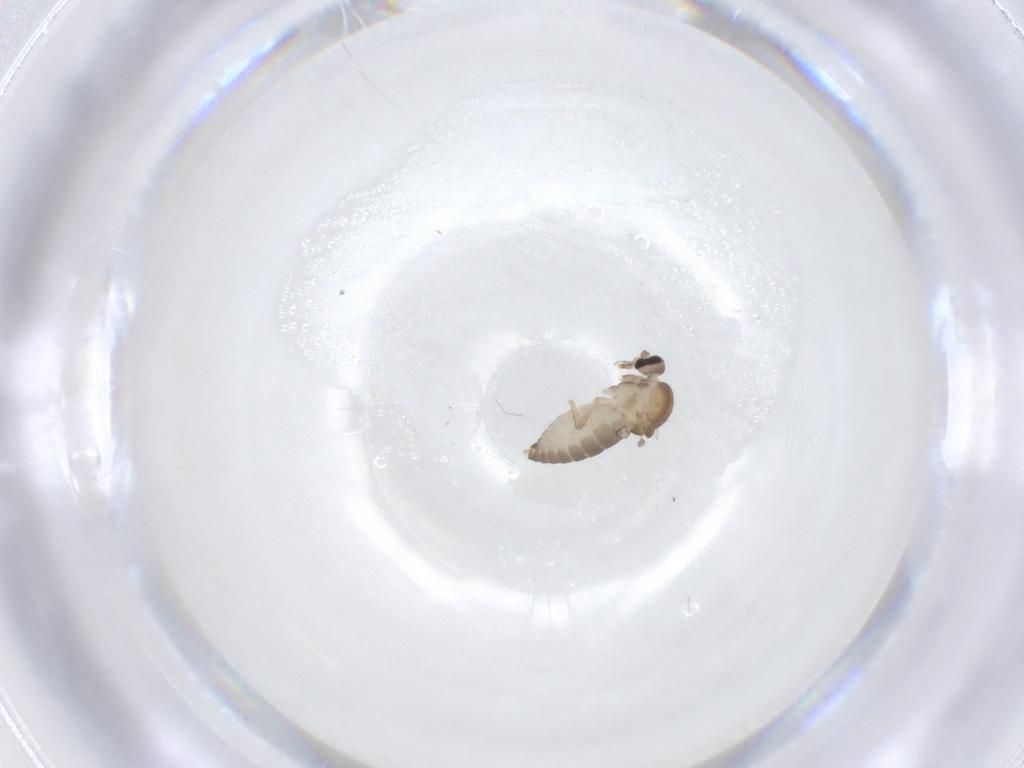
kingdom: Animalia
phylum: Arthropoda
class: Insecta
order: Diptera
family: Ceratopogonidae
